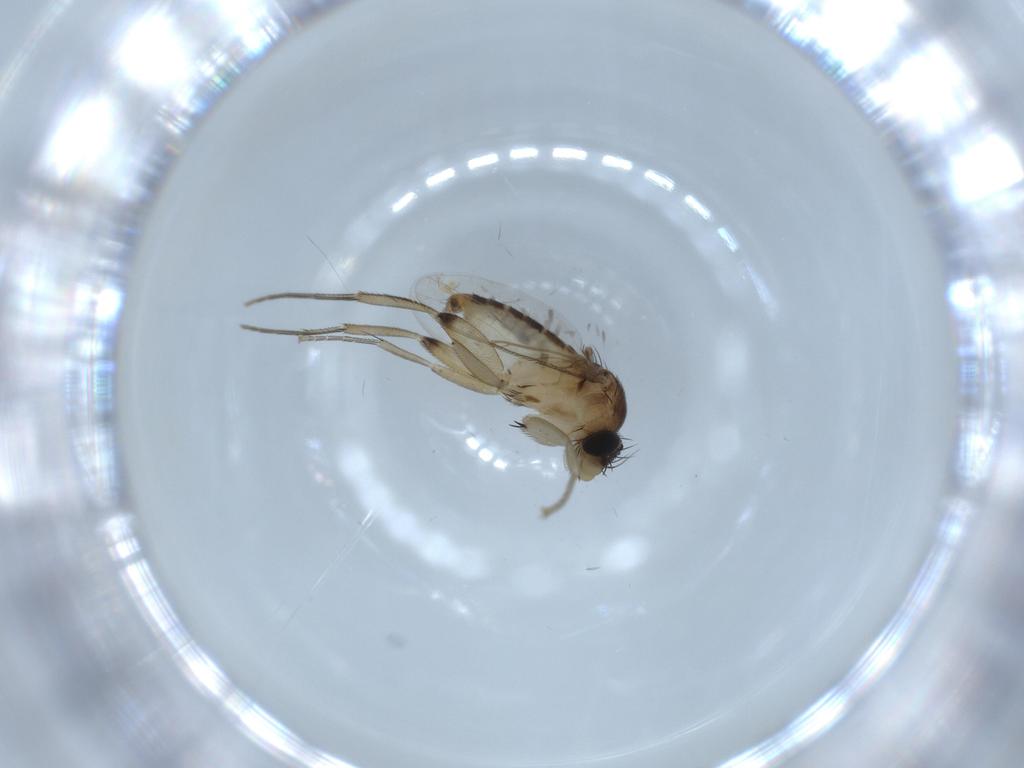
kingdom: Animalia
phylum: Arthropoda
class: Insecta
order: Diptera
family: Phoridae
